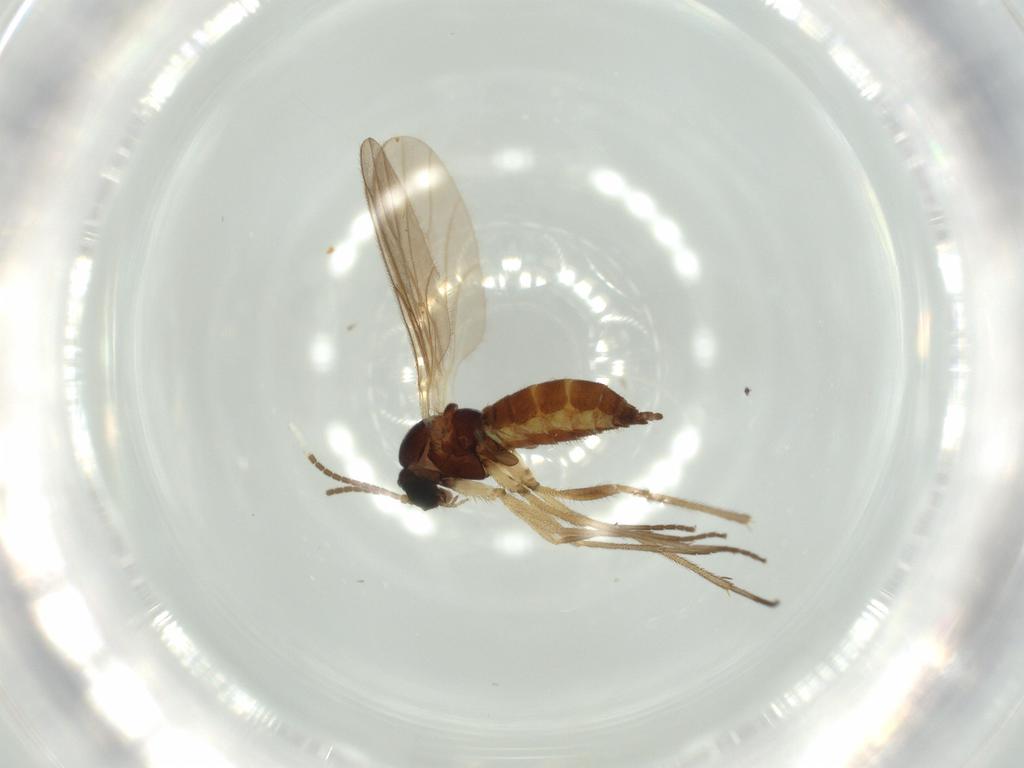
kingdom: Animalia
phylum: Arthropoda
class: Insecta
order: Diptera
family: Sciaridae
